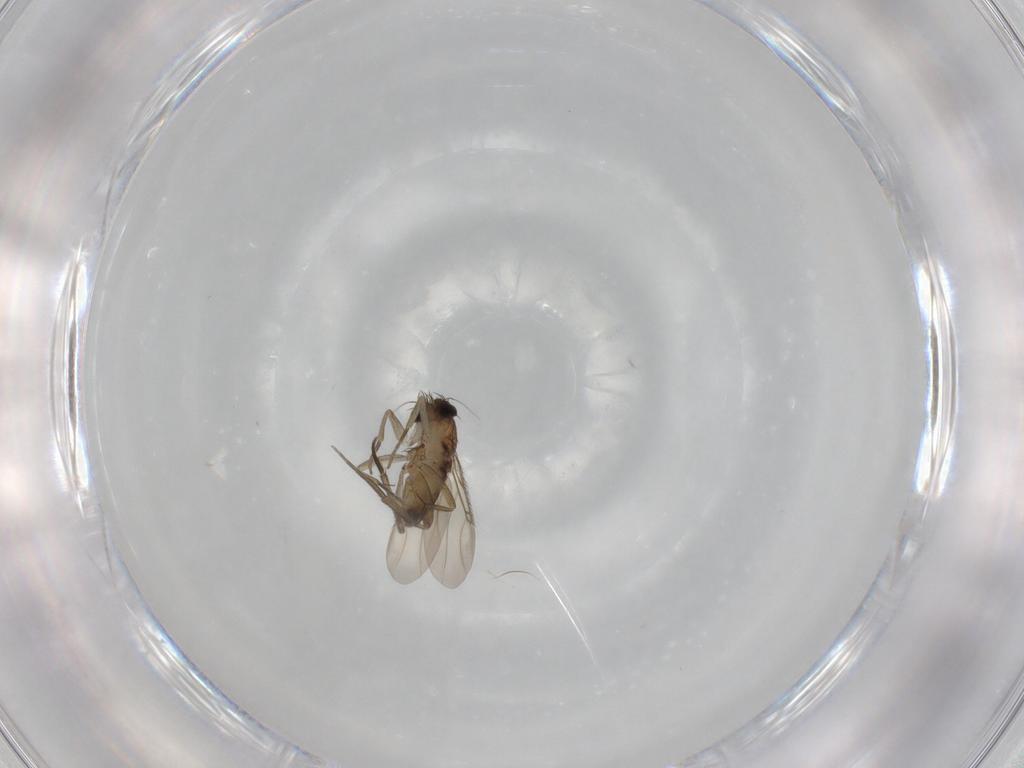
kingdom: Animalia
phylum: Arthropoda
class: Insecta
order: Diptera
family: Phoridae
